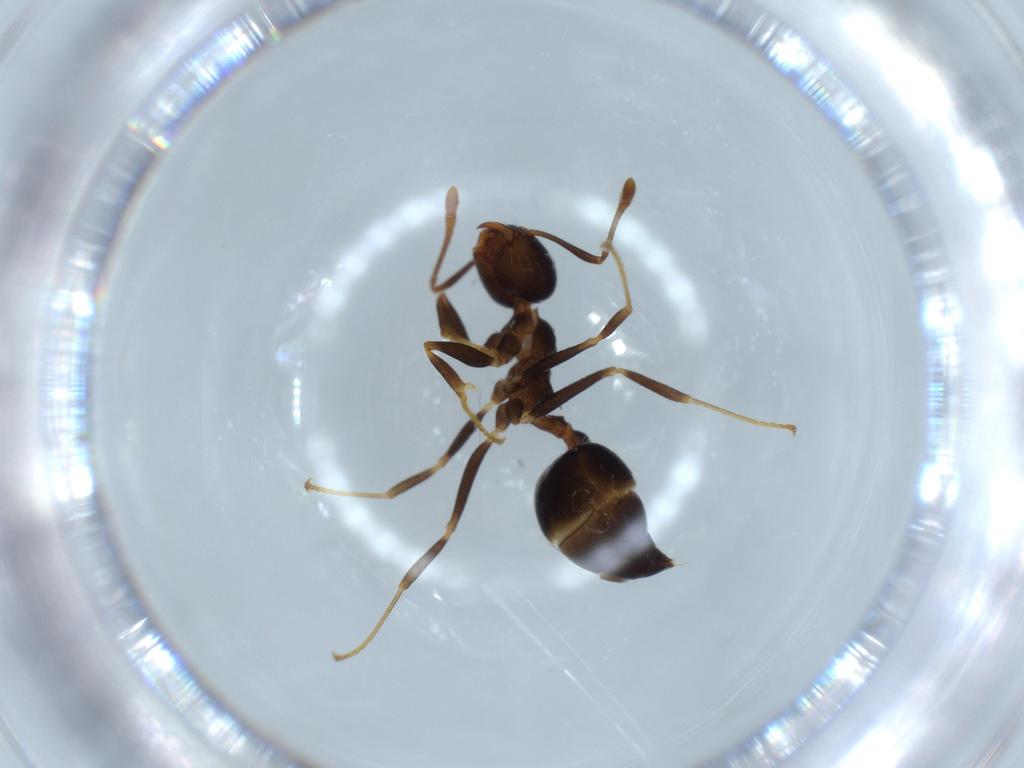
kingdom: Animalia
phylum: Arthropoda
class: Insecta
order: Hymenoptera
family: Formicidae
